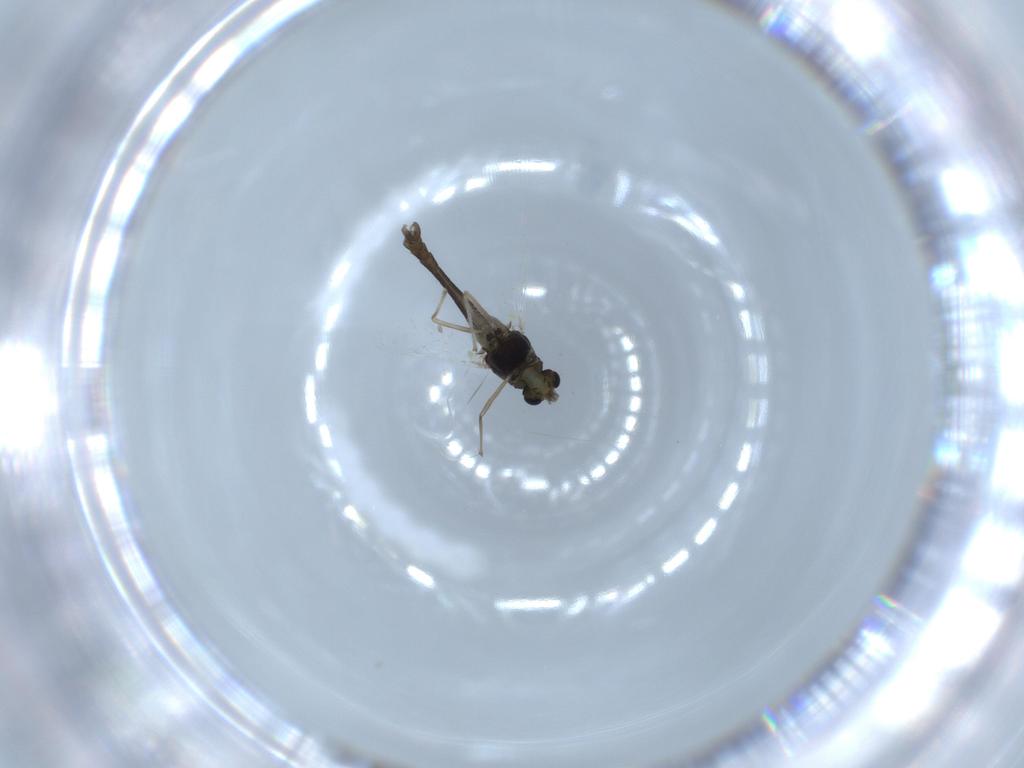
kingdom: Animalia
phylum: Arthropoda
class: Insecta
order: Diptera
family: Chironomidae
